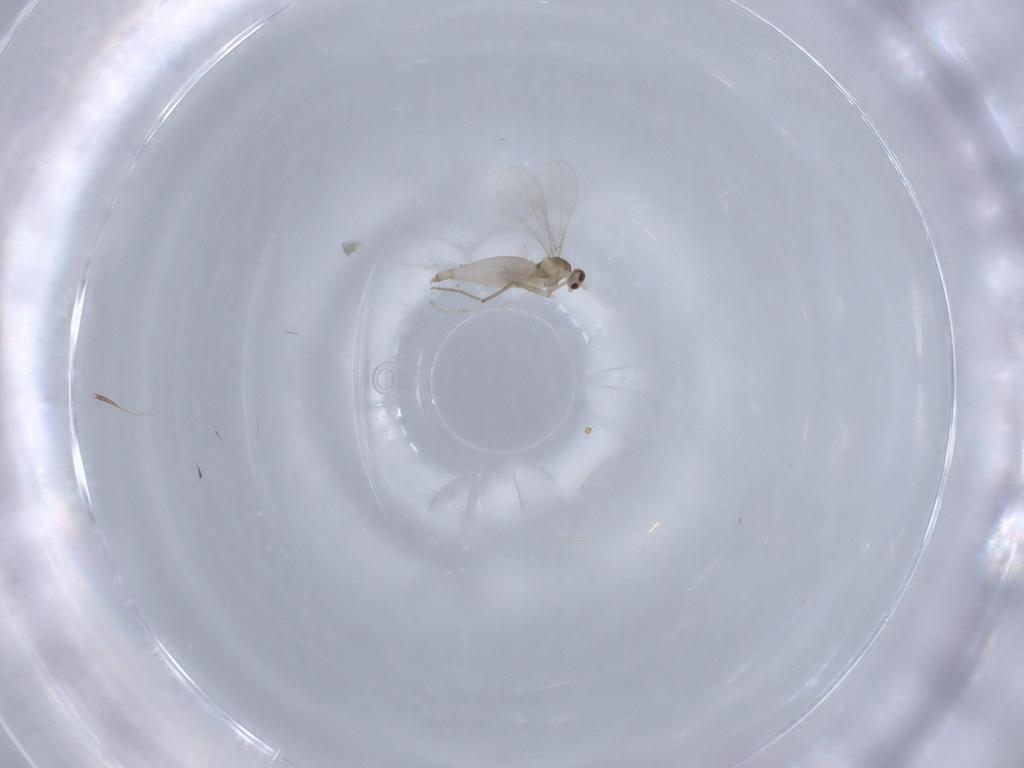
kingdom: Animalia
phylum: Arthropoda
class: Insecta
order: Diptera
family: Cecidomyiidae
